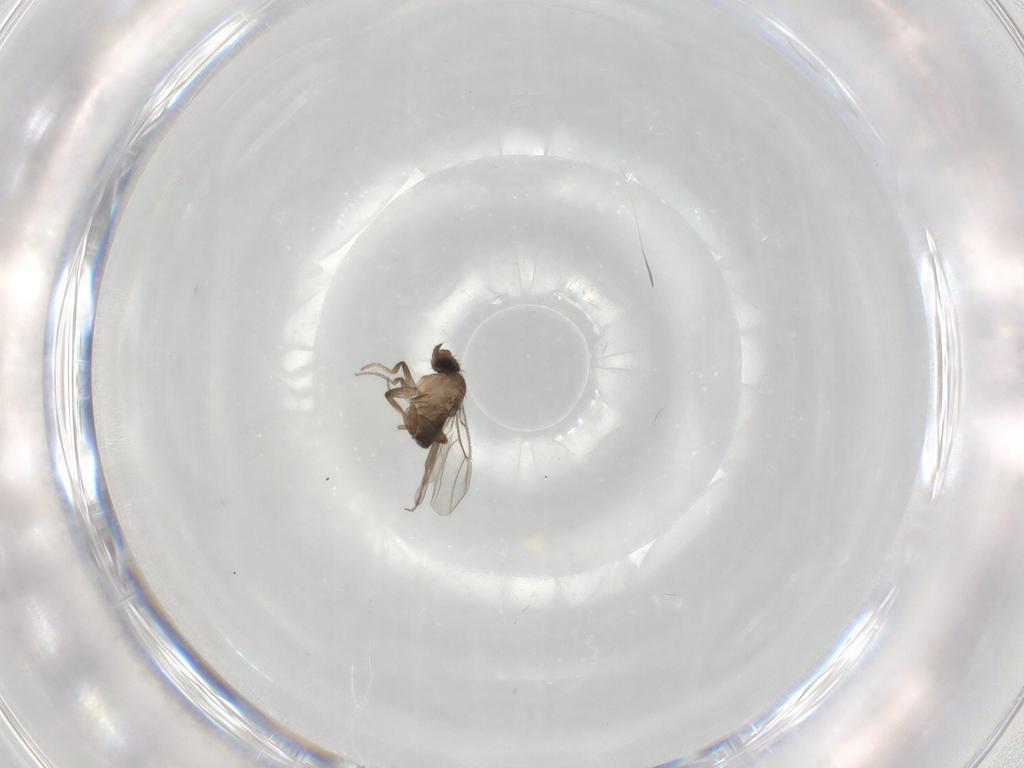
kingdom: Animalia
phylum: Arthropoda
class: Insecta
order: Diptera
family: Phoridae
